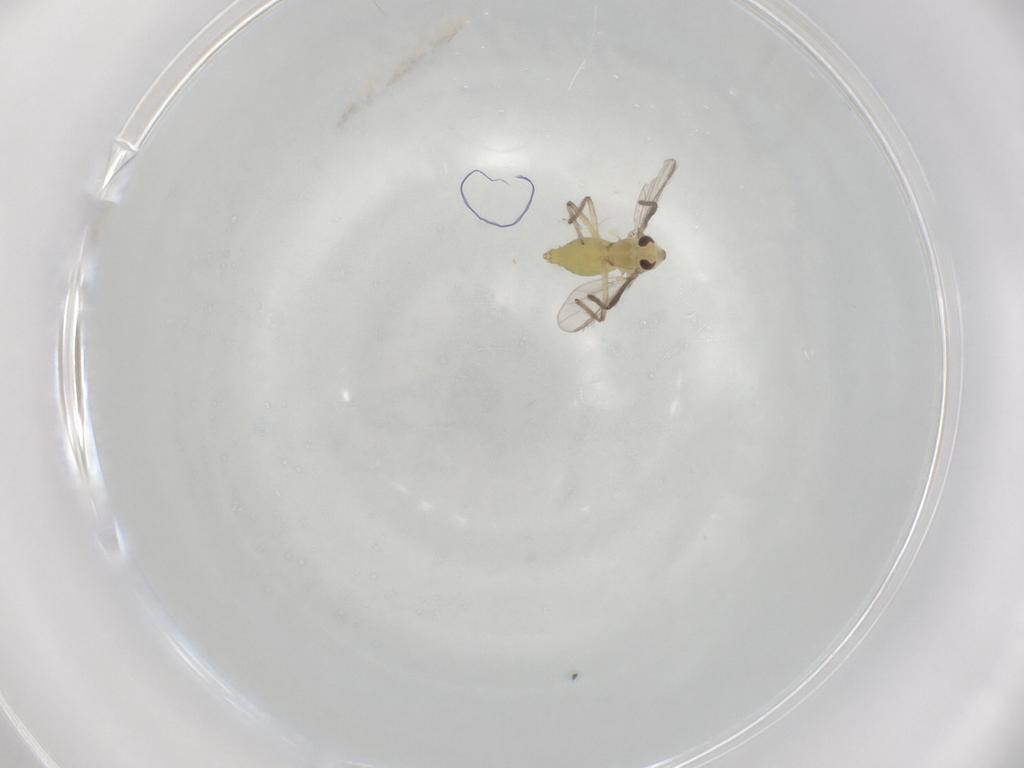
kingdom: Animalia
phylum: Arthropoda
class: Insecta
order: Diptera
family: Chironomidae
